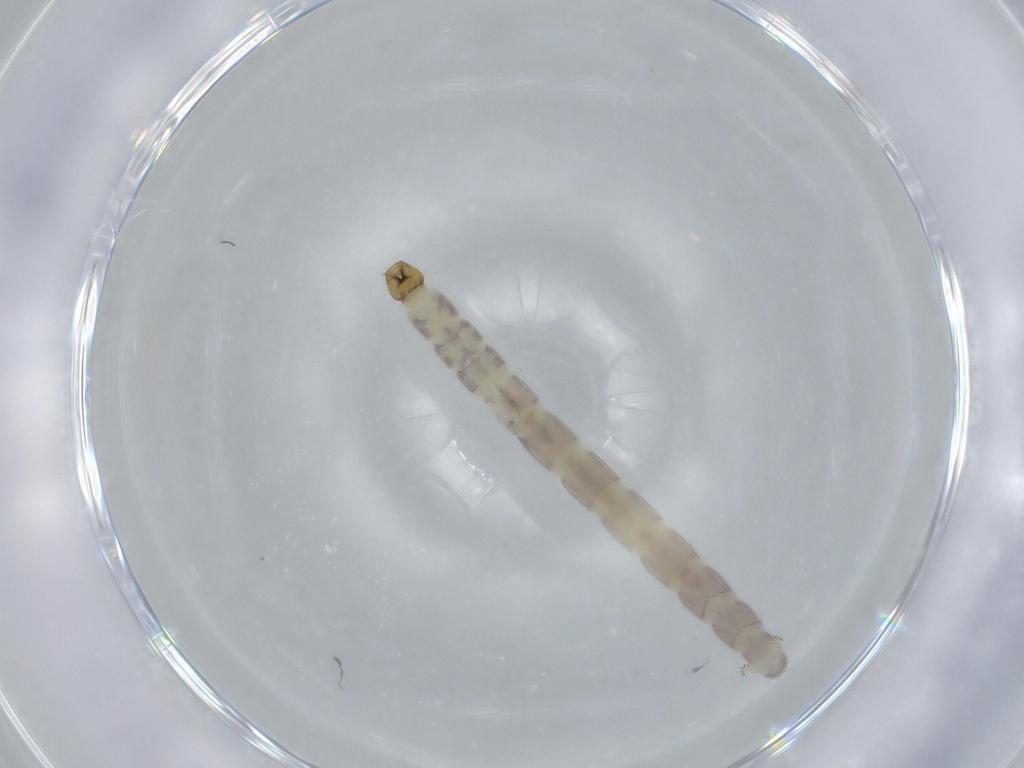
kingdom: Animalia
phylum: Arthropoda
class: Insecta
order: Diptera
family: Chironomidae
